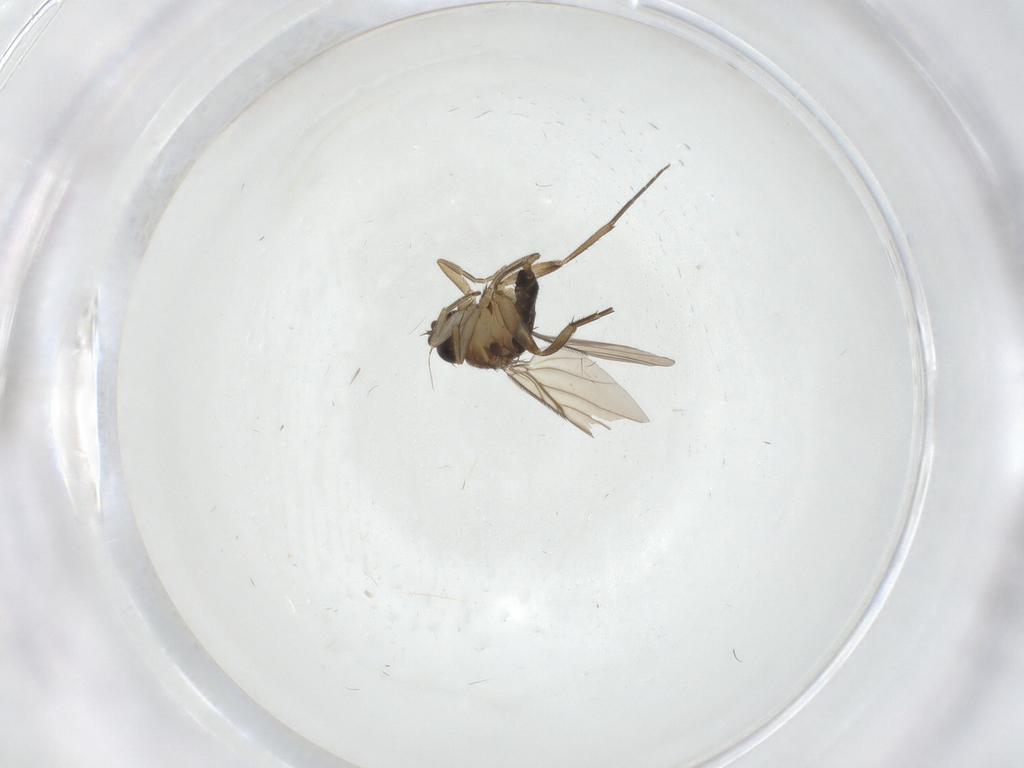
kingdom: Animalia
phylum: Arthropoda
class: Insecta
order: Diptera
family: Phoridae
